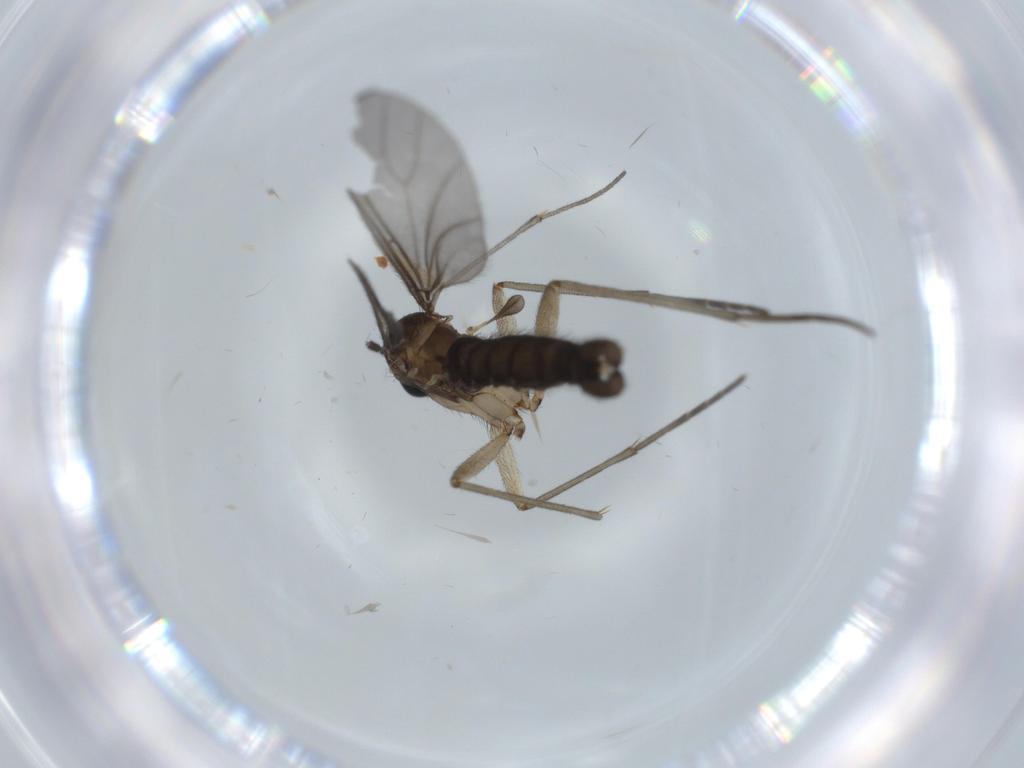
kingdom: Animalia
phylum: Arthropoda
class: Insecta
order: Diptera
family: Sciaridae
